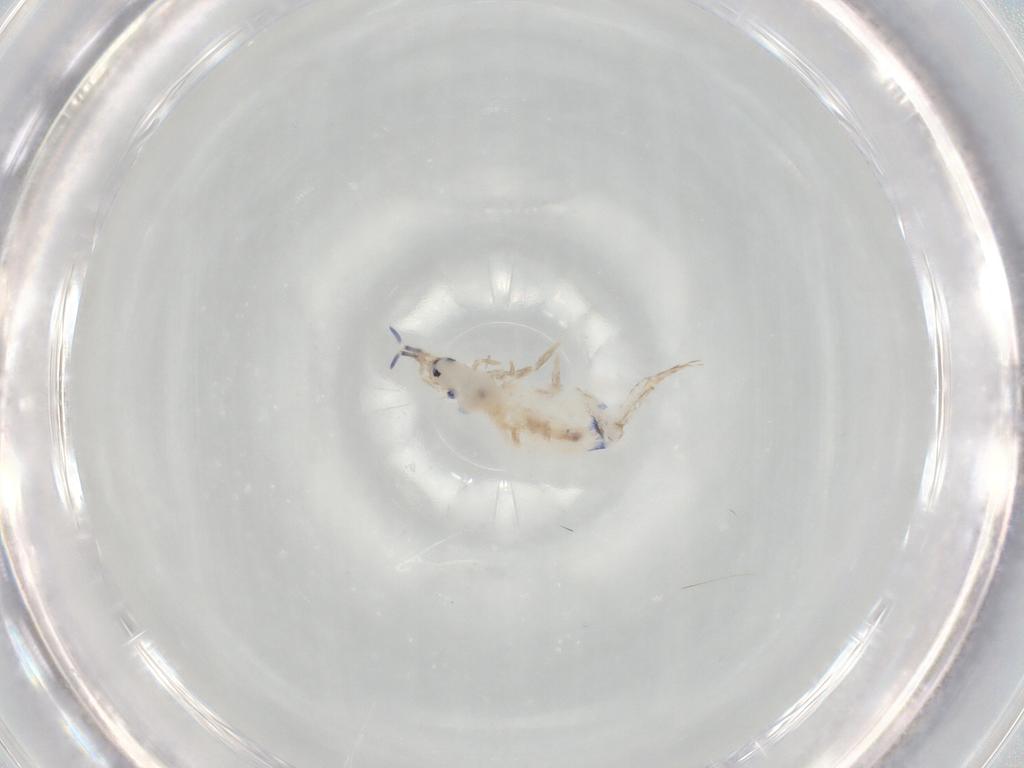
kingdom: Animalia
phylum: Arthropoda
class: Collembola
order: Entomobryomorpha
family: Entomobryidae
